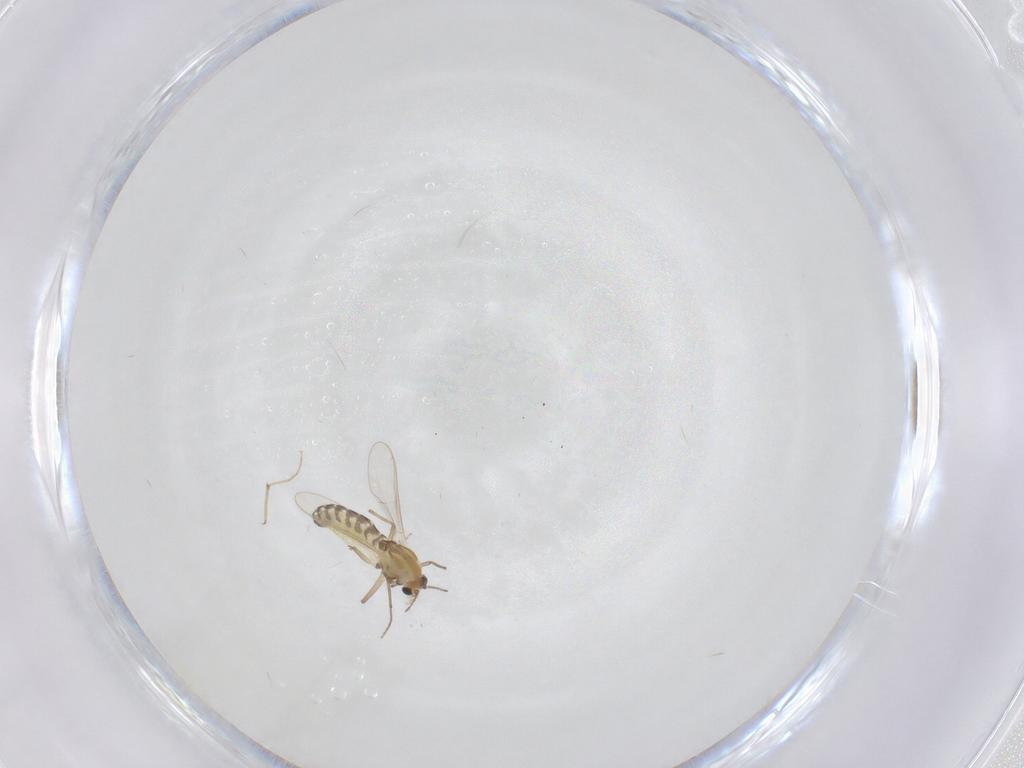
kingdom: Animalia
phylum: Arthropoda
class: Insecta
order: Diptera
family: Chironomidae
